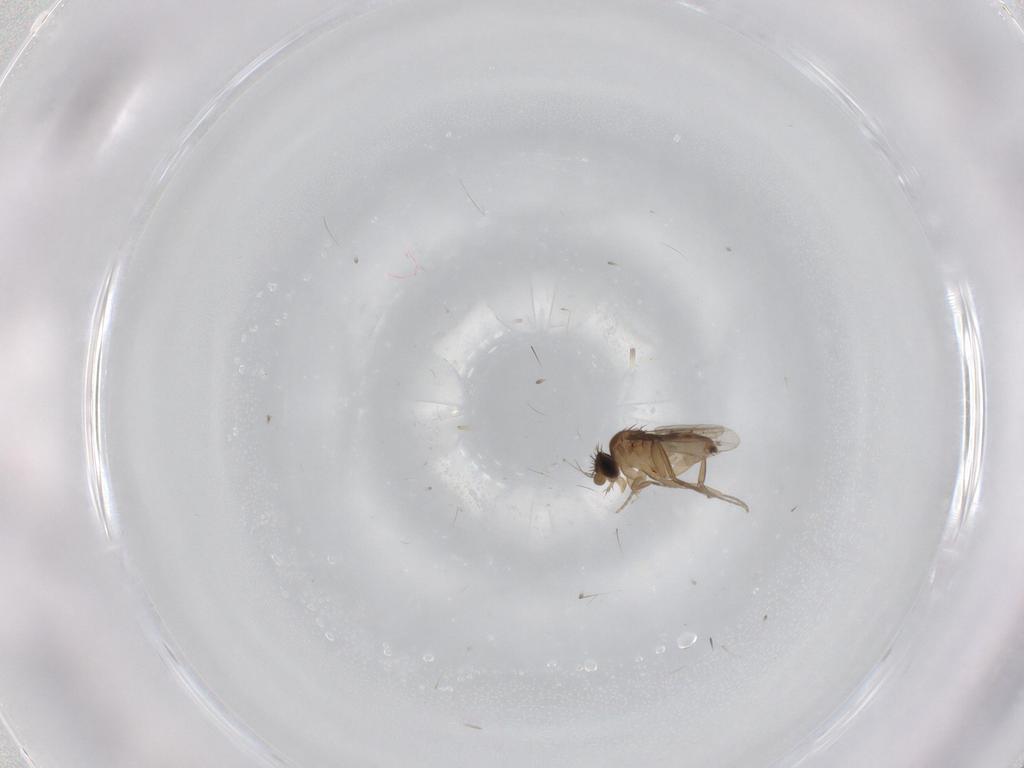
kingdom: Animalia
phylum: Arthropoda
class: Insecta
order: Diptera
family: Phoridae
